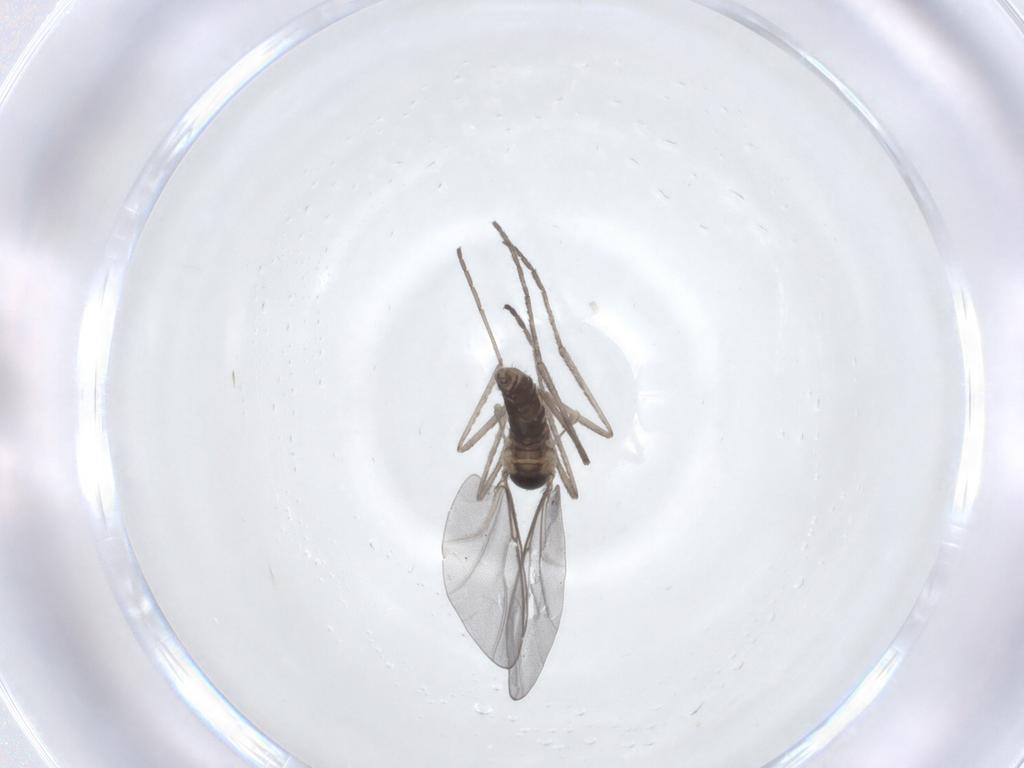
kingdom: Animalia
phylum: Arthropoda
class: Insecta
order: Diptera
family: Cecidomyiidae
